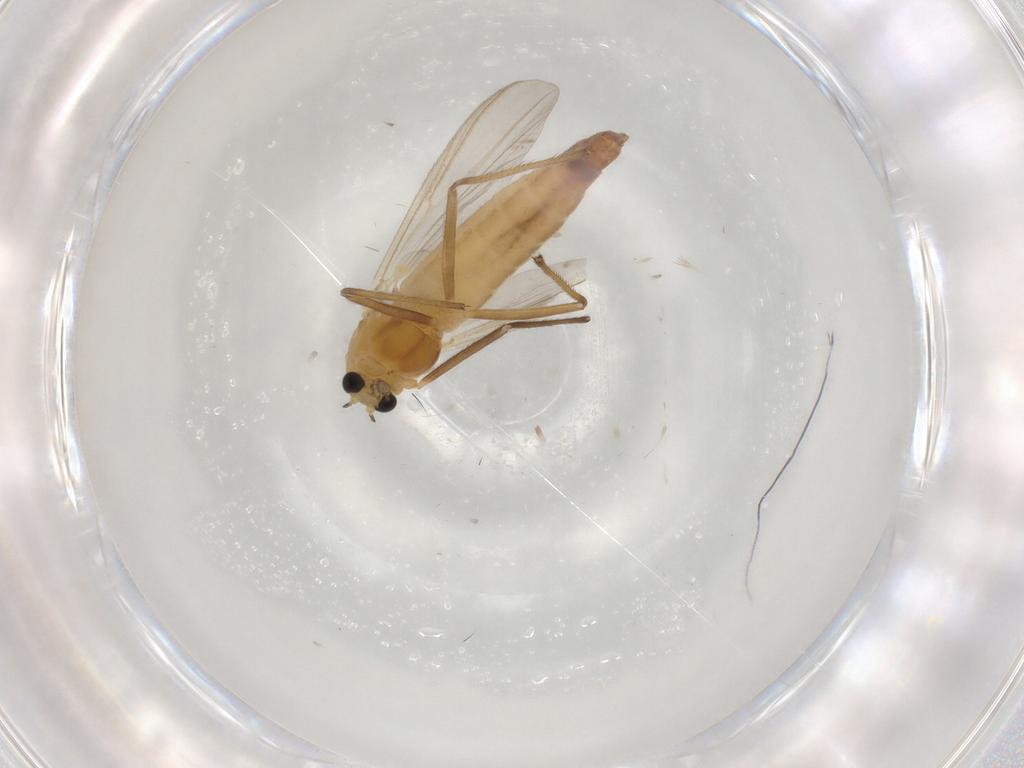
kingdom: Animalia
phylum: Arthropoda
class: Insecta
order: Diptera
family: Chironomidae
